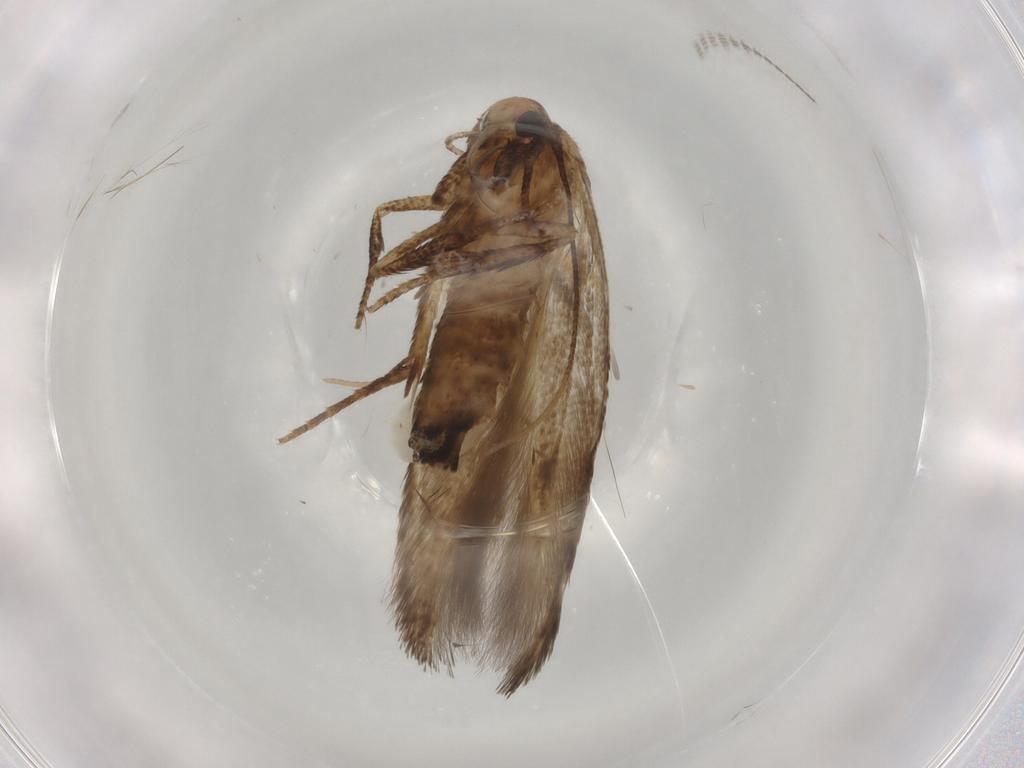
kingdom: Animalia
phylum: Arthropoda
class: Insecta
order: Lepidoptera
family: Cosmopterigidae
